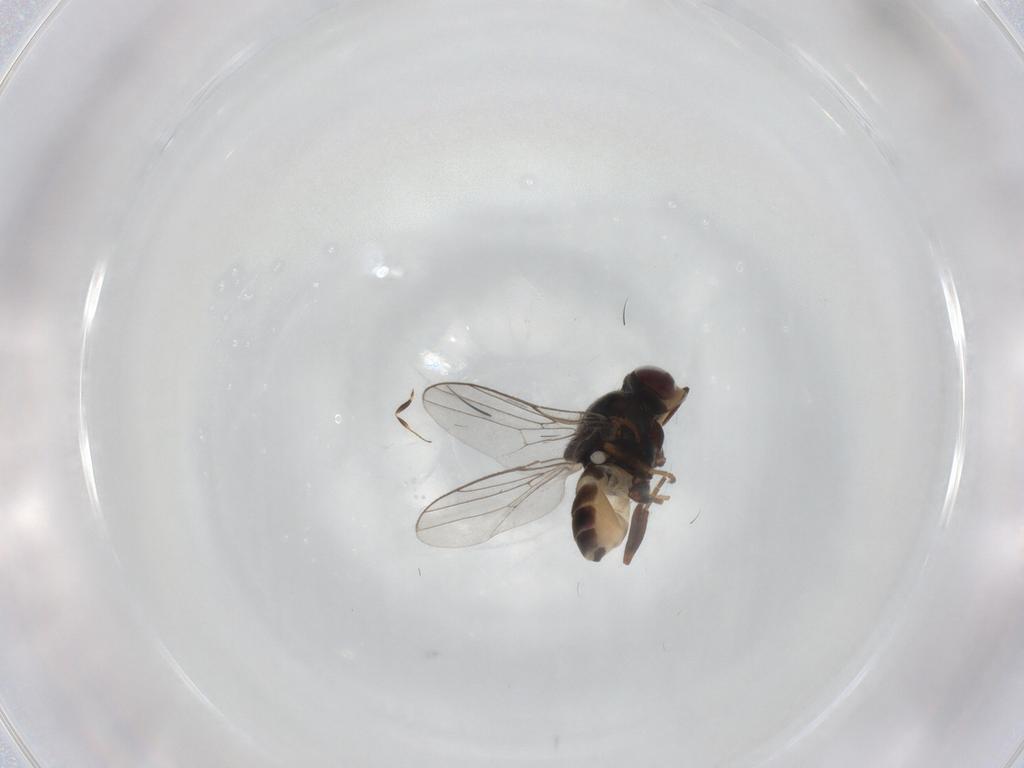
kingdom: Animalia
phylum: Arthropoda
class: Insecta
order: Diptera
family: Chloropidae
